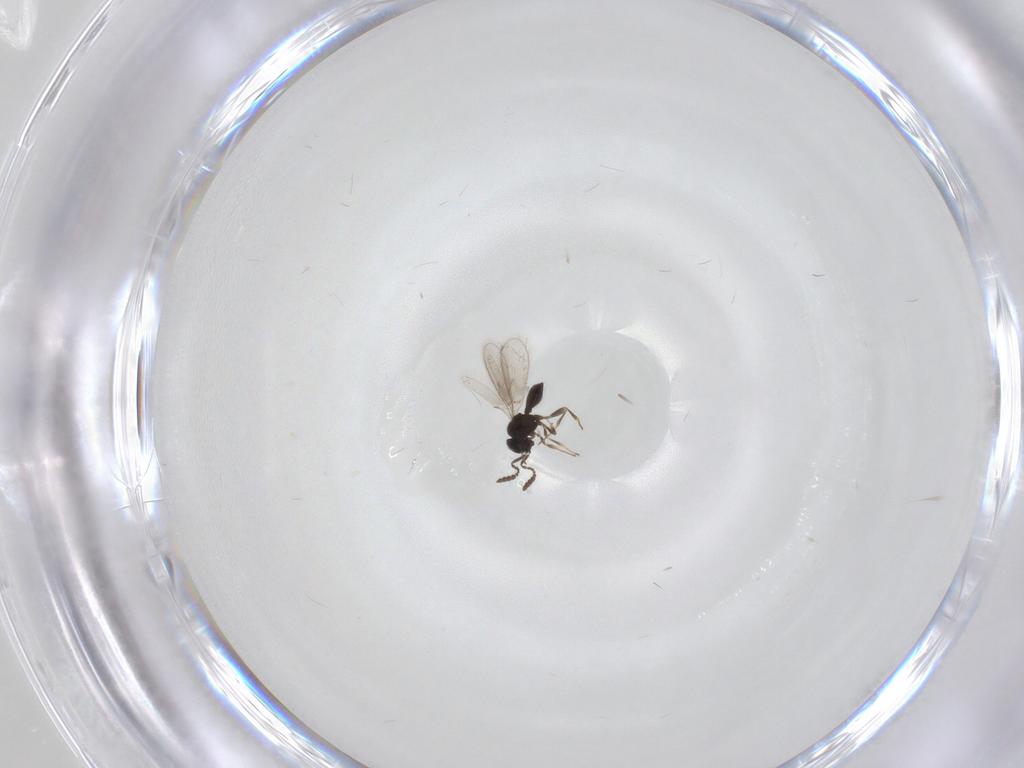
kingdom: Animalia
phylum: Arthropoda
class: Insecta
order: Hymenoptera
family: Scelionidae
